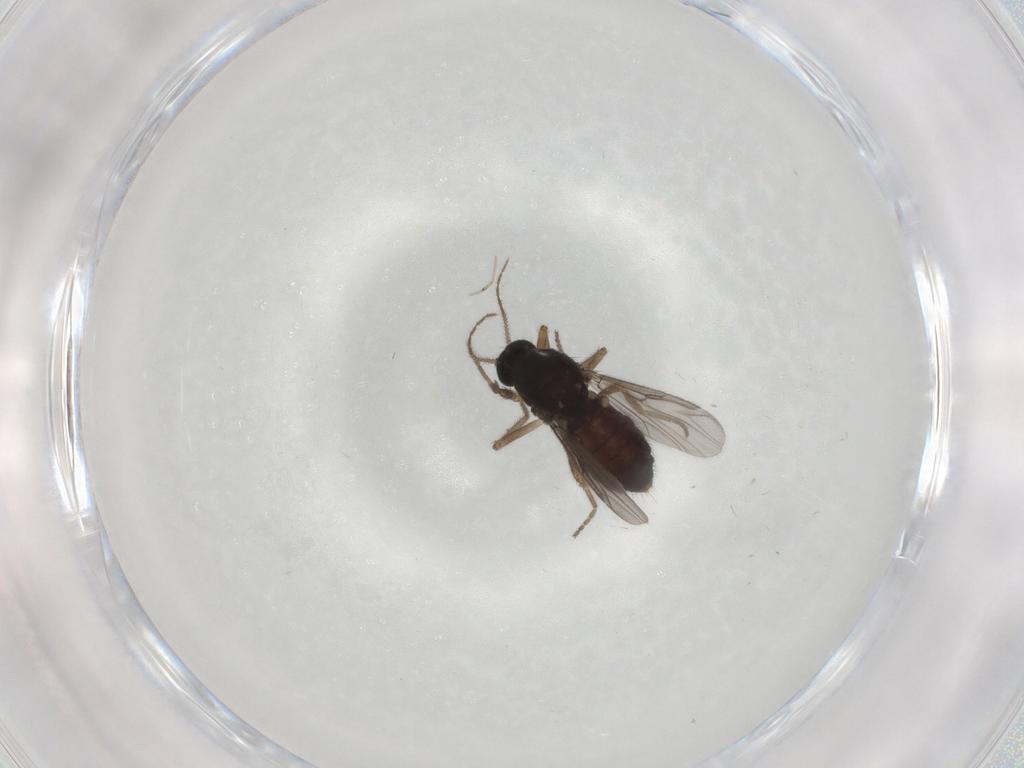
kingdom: Animalia
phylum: Arthropoda
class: Insecta
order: Diptera
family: Ceratopogonidae
